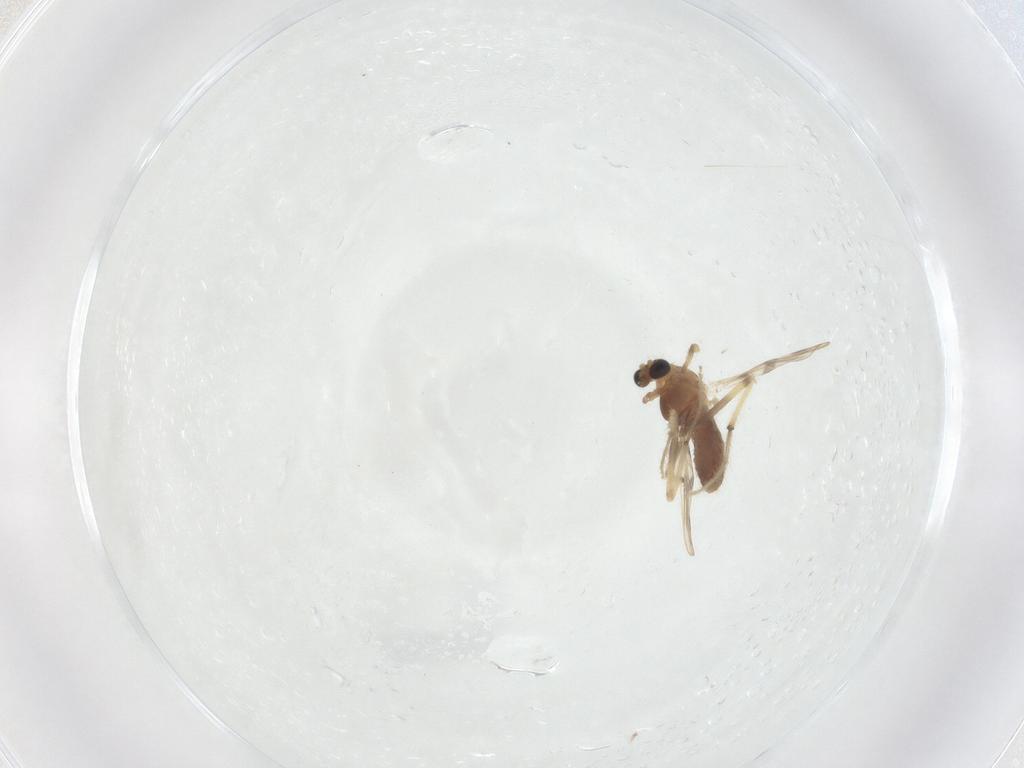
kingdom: Animalia
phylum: Arthropoda
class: Insecta
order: Diptera
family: Chironomidae
